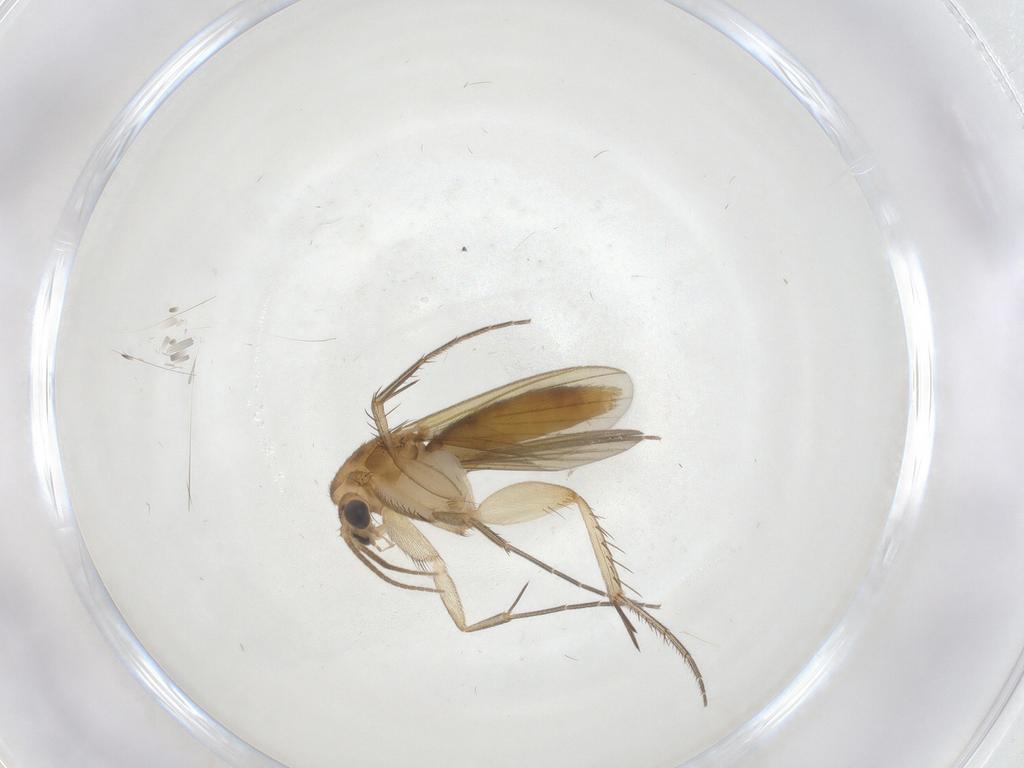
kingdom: Animalia
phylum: Arthropoda
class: Insecta
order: Diptera
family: Mycetophilidae
